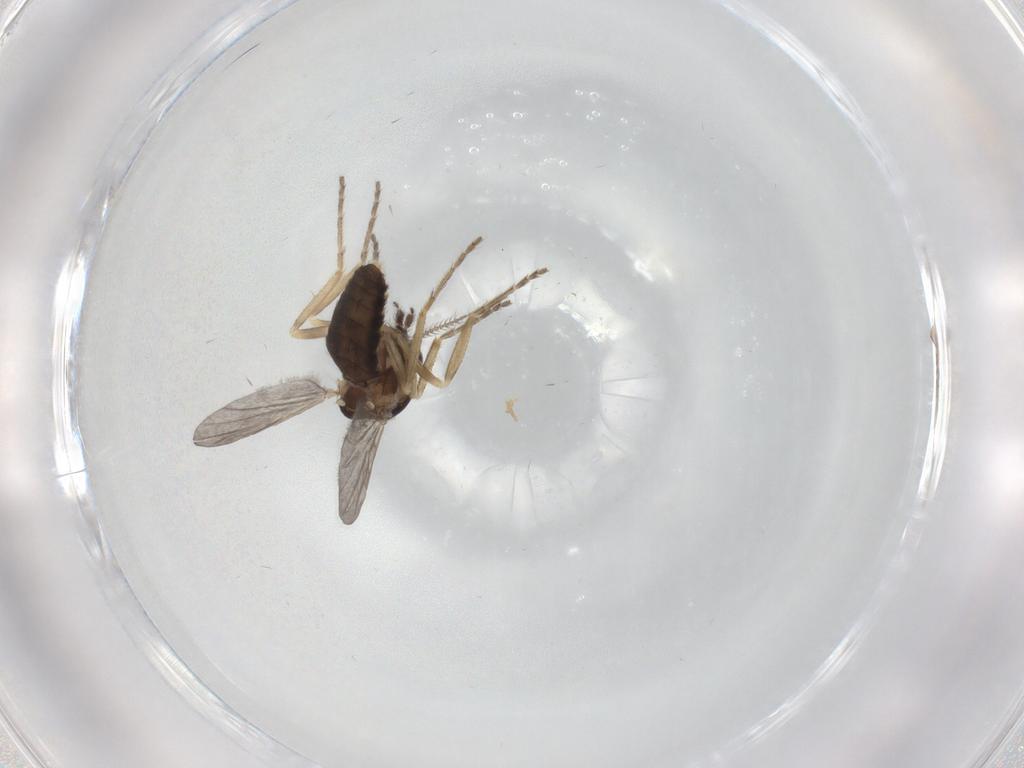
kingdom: Animalia
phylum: Arthropoda
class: Insecta
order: Diptera
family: Ceratopogonidae
